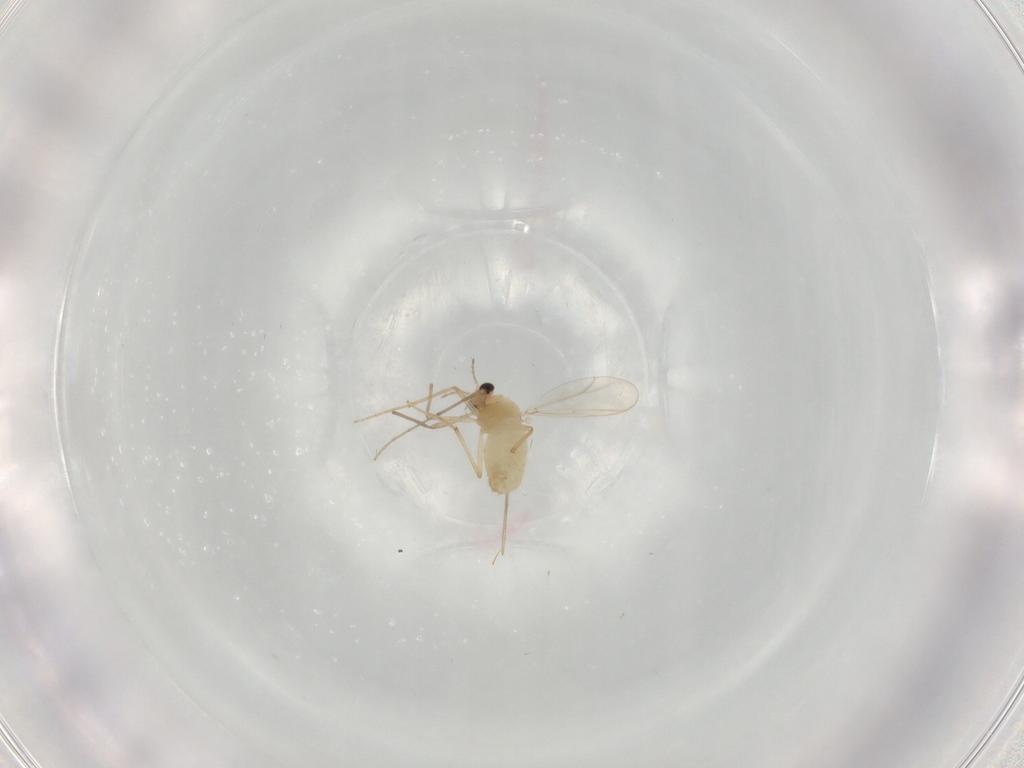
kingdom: Animalia
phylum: Arthropoda
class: Insecta
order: Diptera
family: Chironomidae
